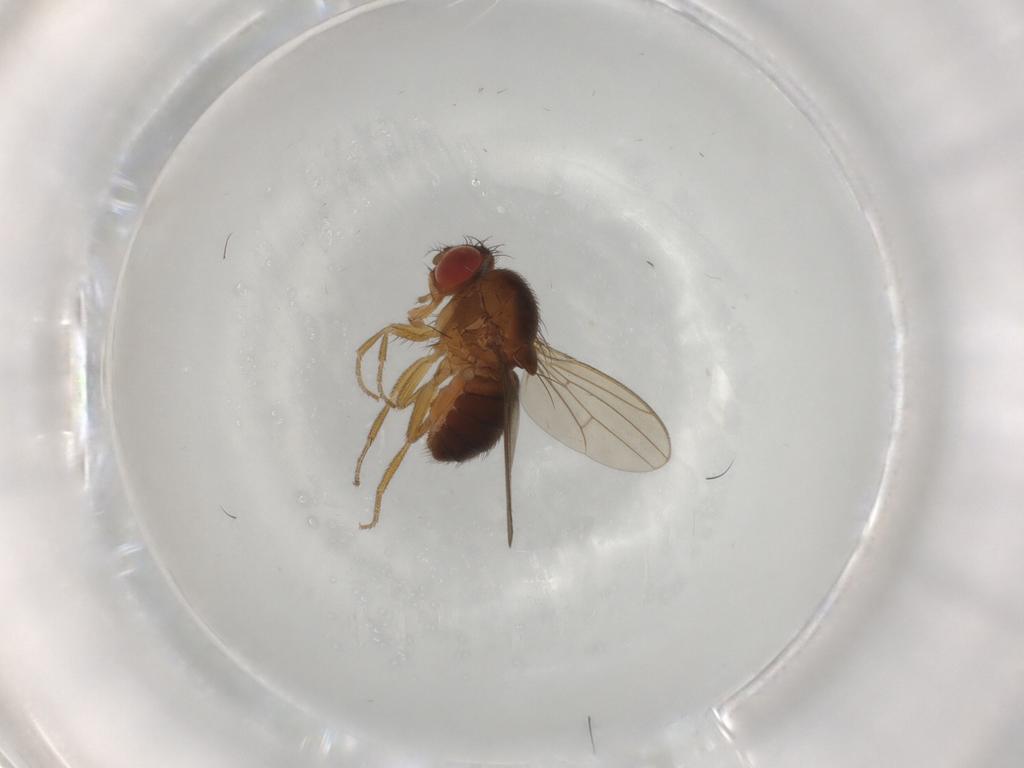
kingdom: Animalia
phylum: Arthropoda
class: Insecta
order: Diptera
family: Drosophilidae
